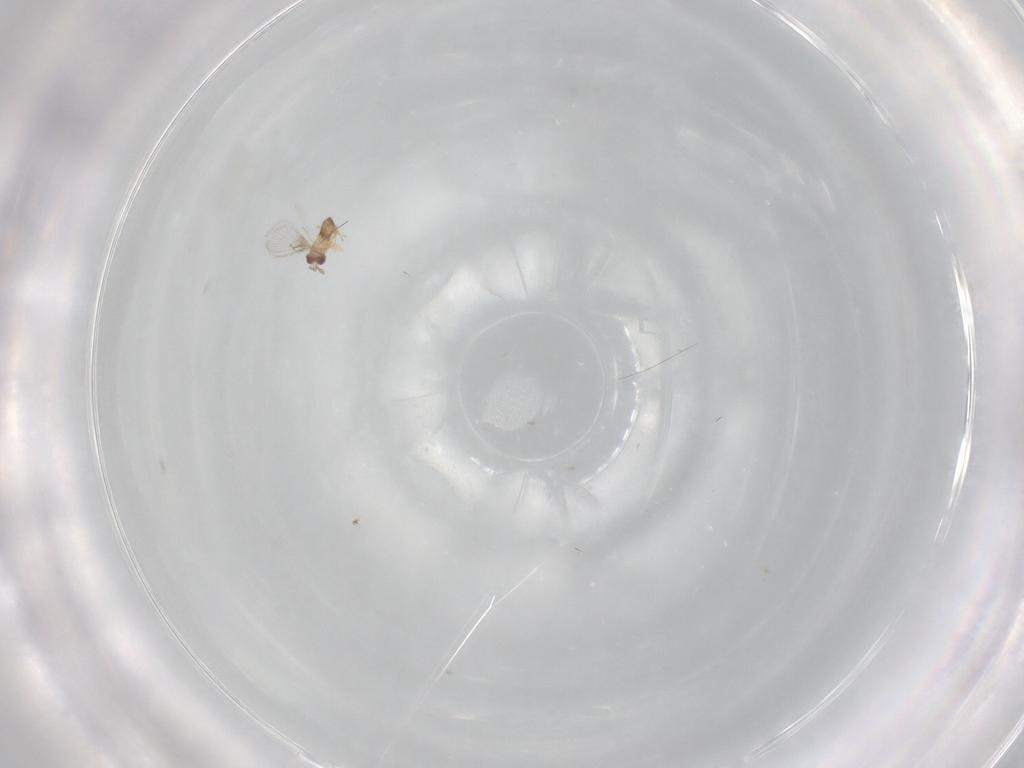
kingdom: Animalia
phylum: Arthropoda
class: Insecta
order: Hymenoptera
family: Trichogrammatidae
